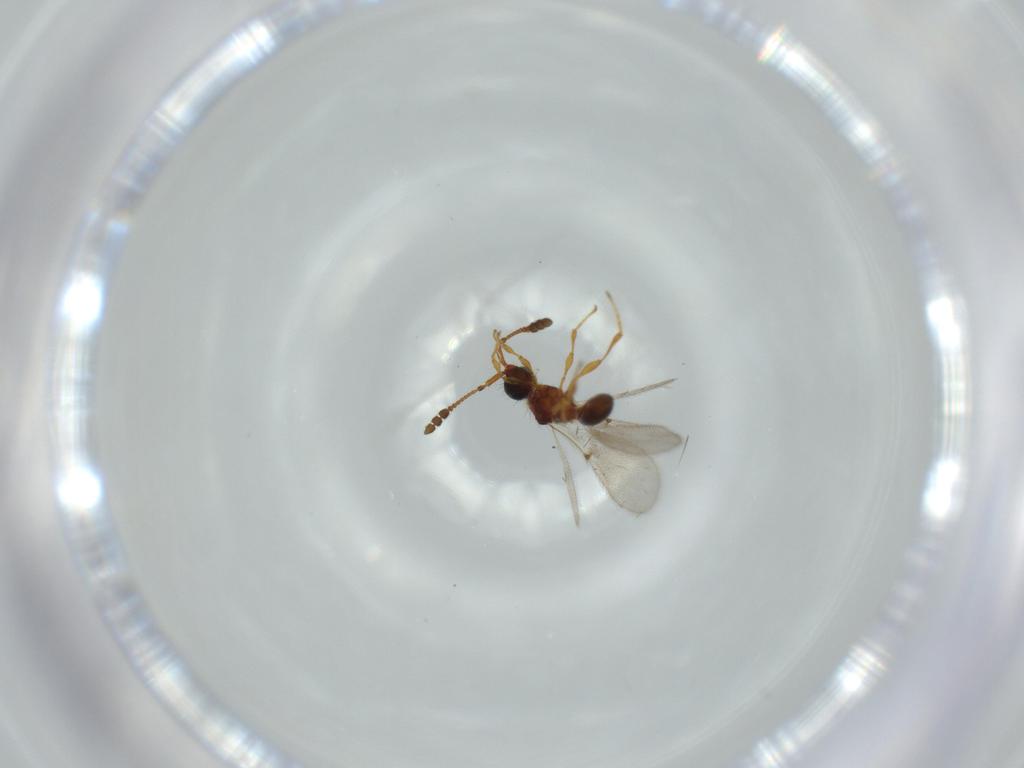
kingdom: Animalia
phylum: Arthropoda
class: Insecta
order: Hymenoptera
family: Diapriidae
